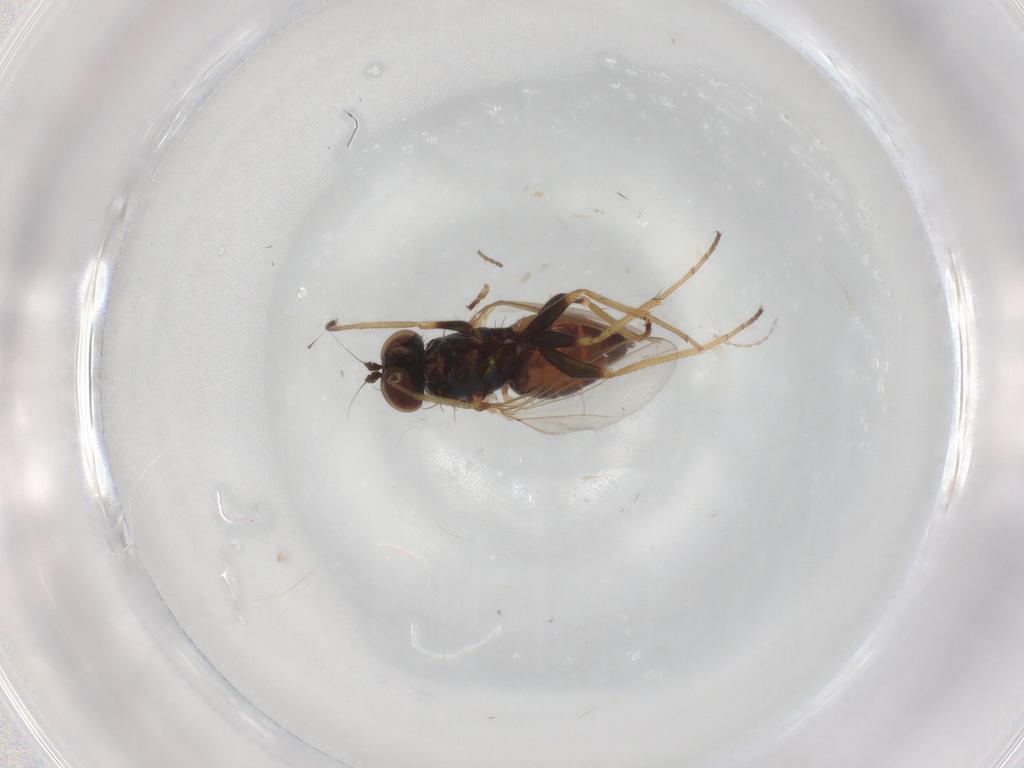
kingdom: Animalia
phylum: Arthropoda
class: Insecta
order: Diptera
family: Dolichopodidae
